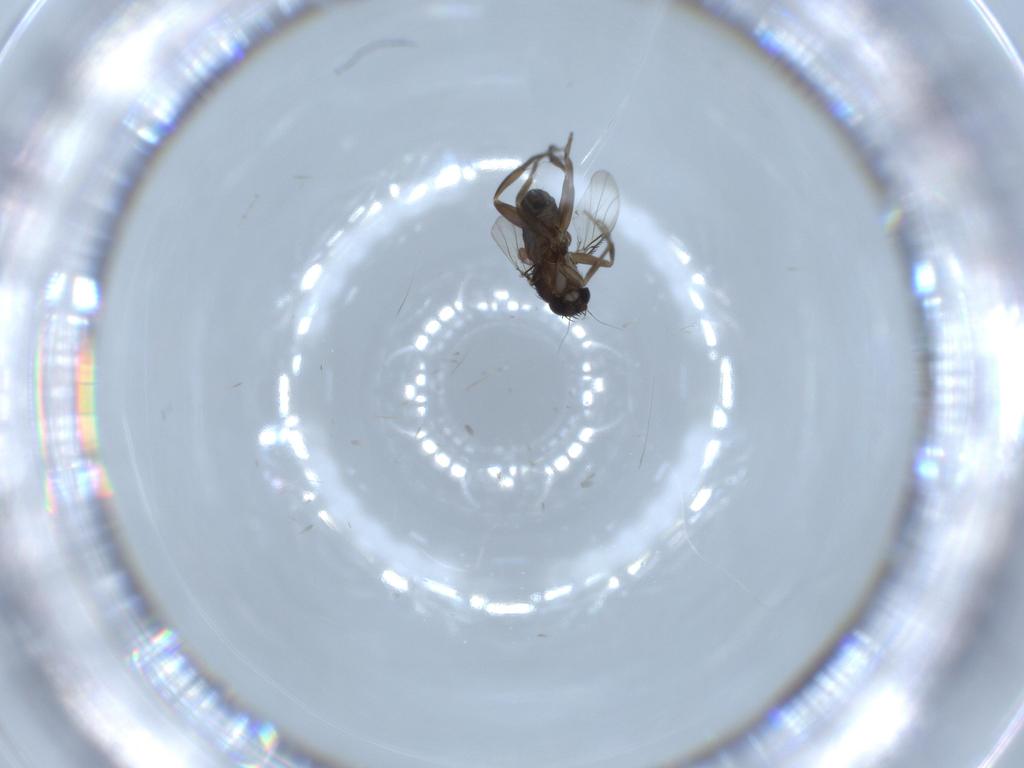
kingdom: Animalia
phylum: Arthropoda
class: Insecta
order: Diptera
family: Phoridae
